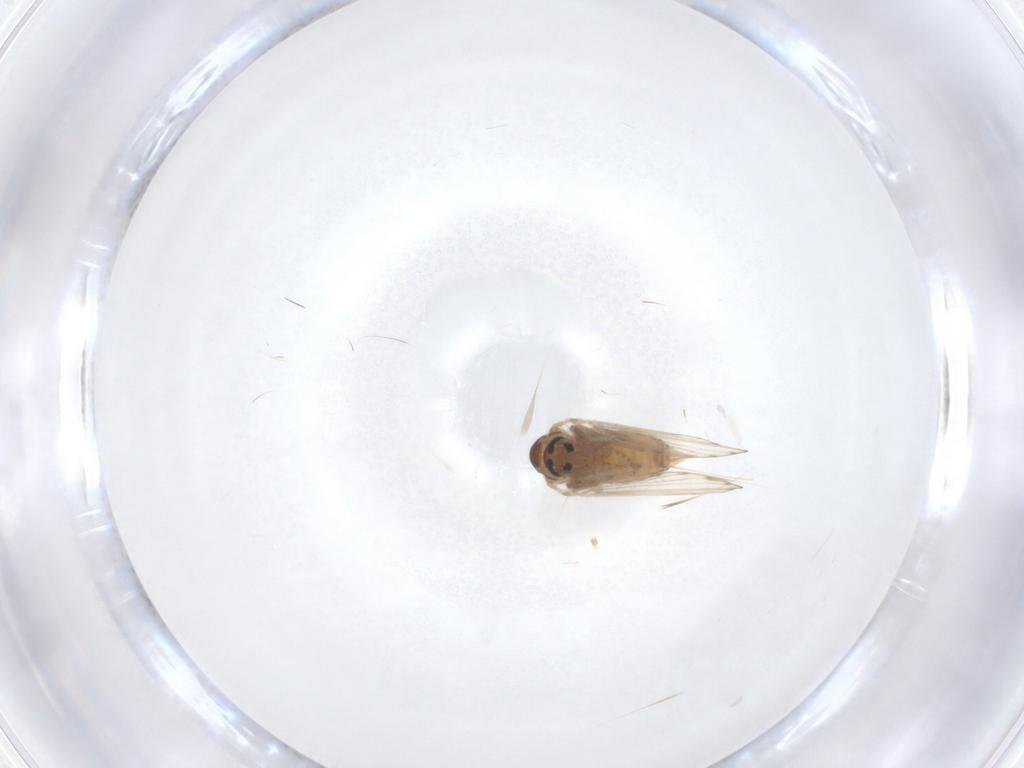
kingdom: Animalia
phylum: Arthropoda
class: Insecta
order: Diptera
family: Psychodidae
